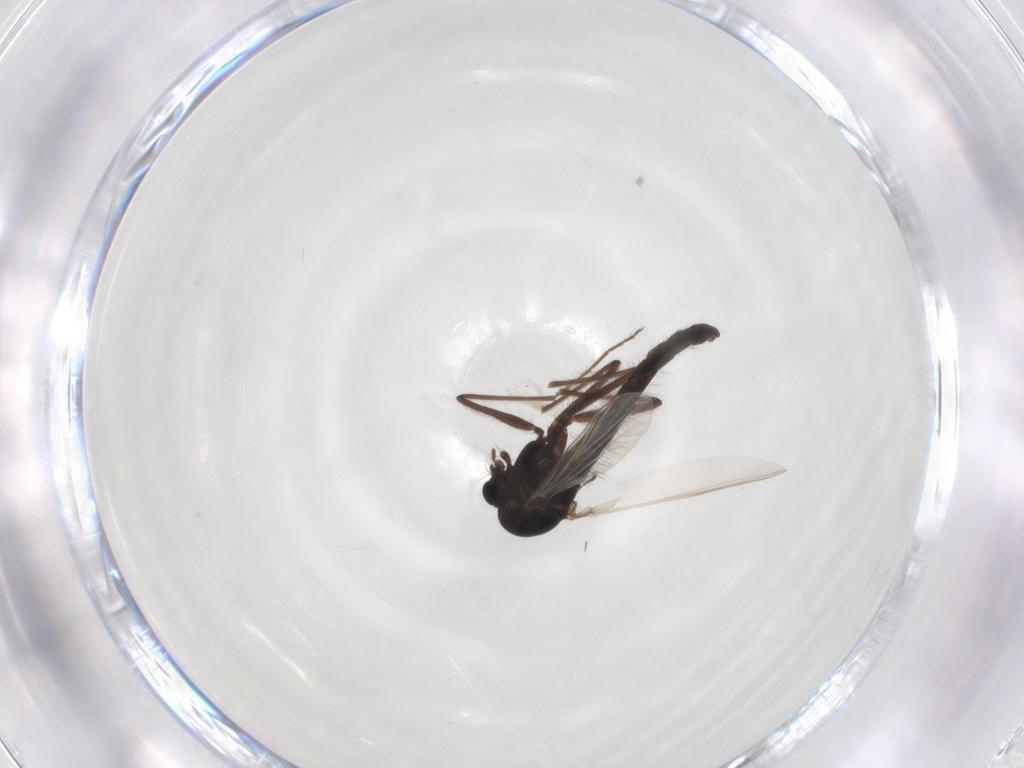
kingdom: Animalia
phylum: Arthropoda
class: Insecta
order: Diptera
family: Chironomidae
